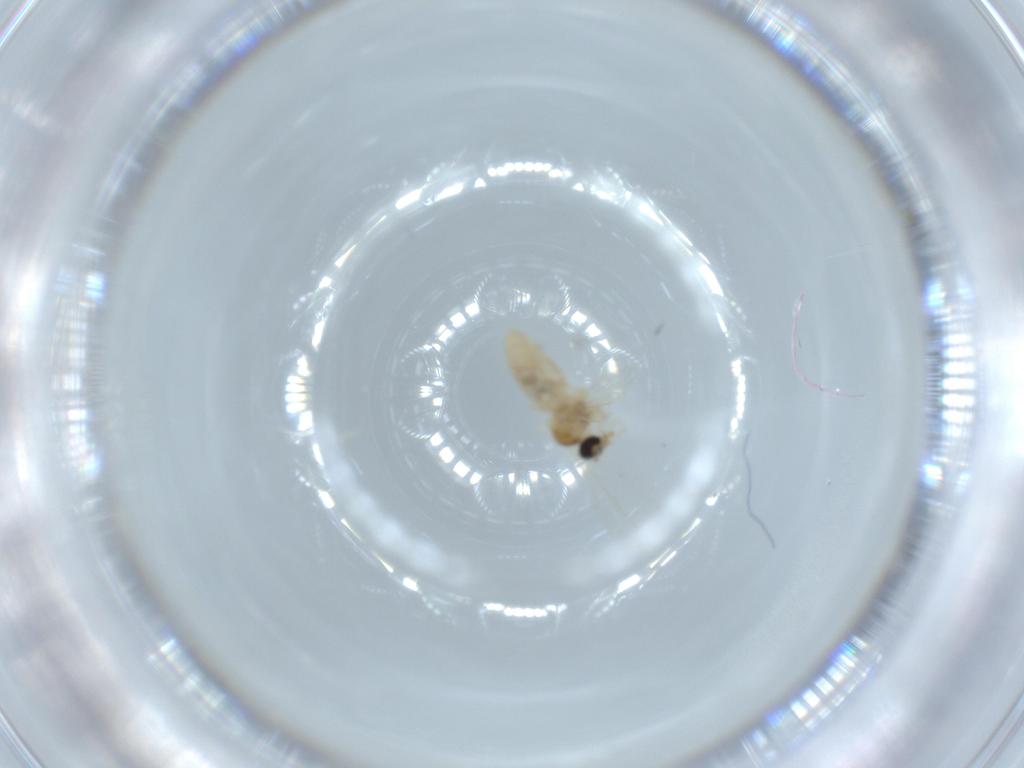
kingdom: Animalia
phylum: Arthropoda
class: Insecta
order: Diptera
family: Cecidomyiidae
